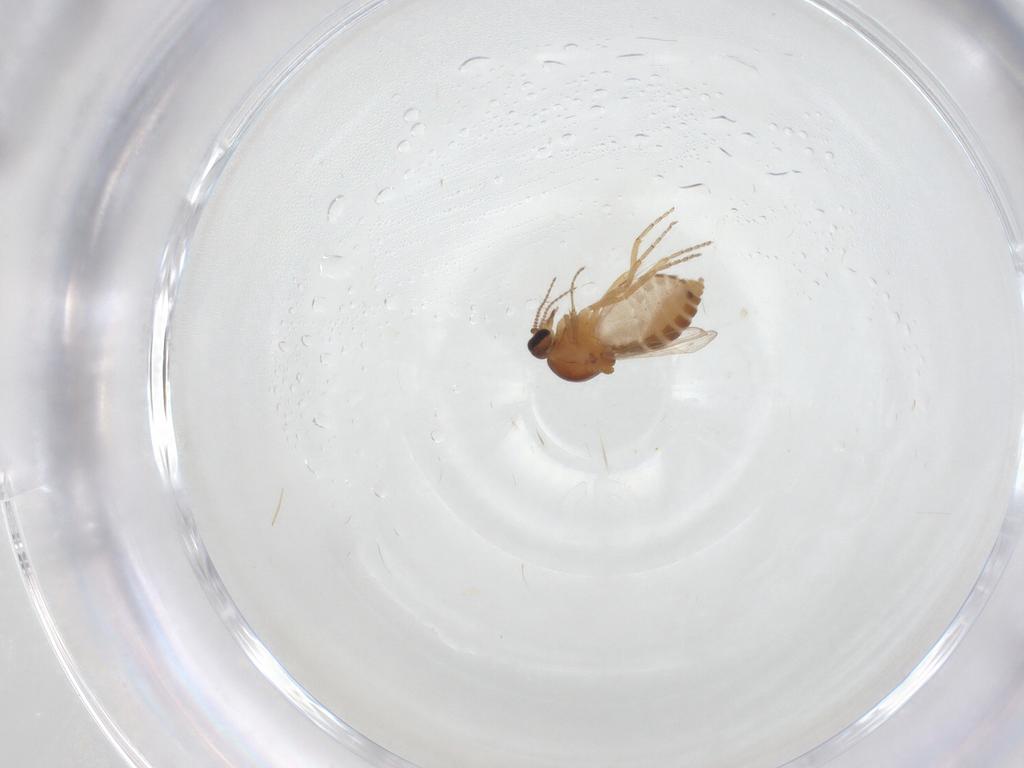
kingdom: Animalia
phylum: Arthropoda
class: Insecta
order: Diptera
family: Ceratopogonidae
